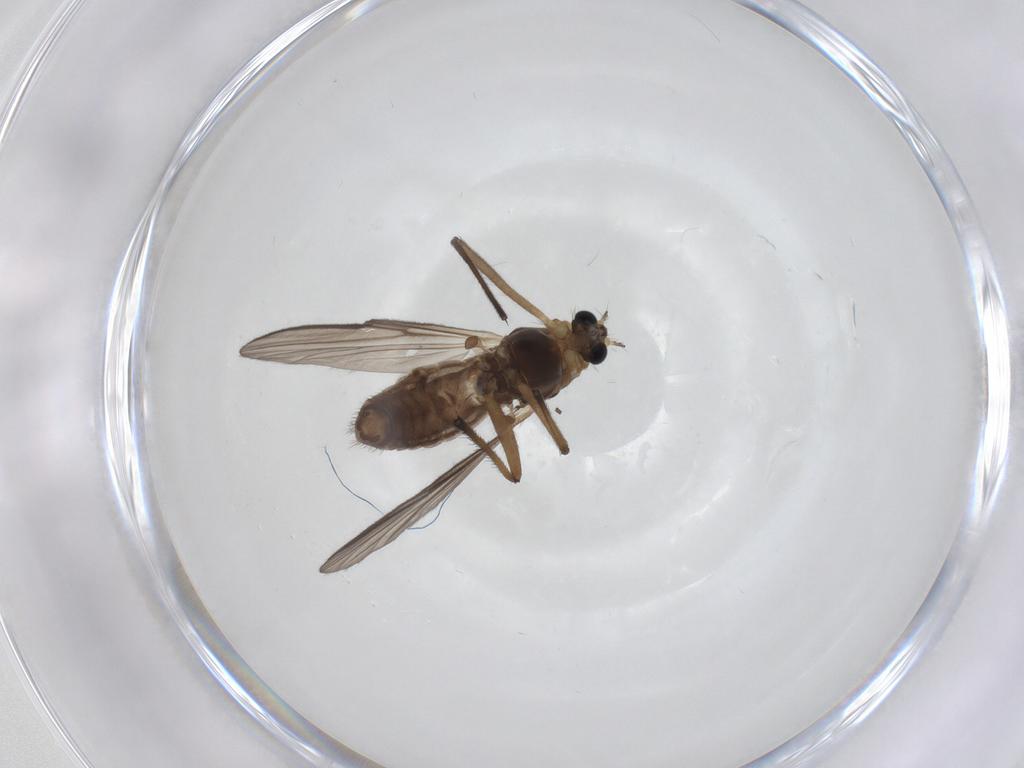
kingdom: Animalia
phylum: Arthropoda
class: Insecta
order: Diptera
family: Chironomidae
